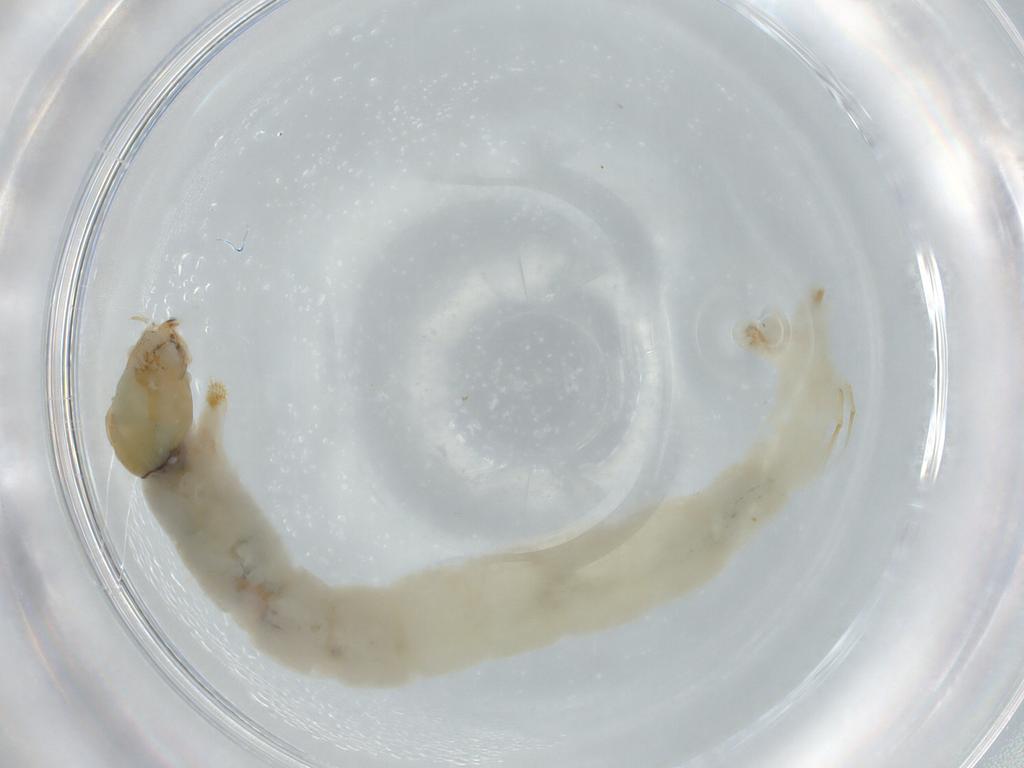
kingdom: Animalia
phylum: Arthropoda
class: Insecta
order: Diptera
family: Chironomidae
